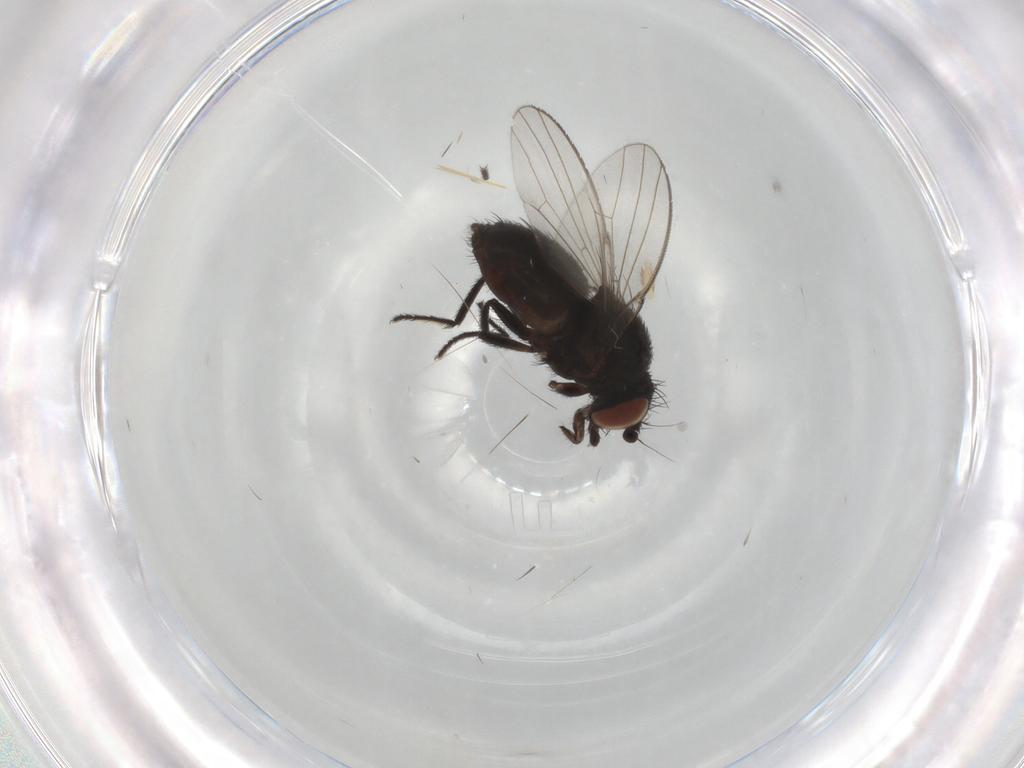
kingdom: Animalia
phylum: Arthropoda
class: Insecta
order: Diptera
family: Milichiidae
